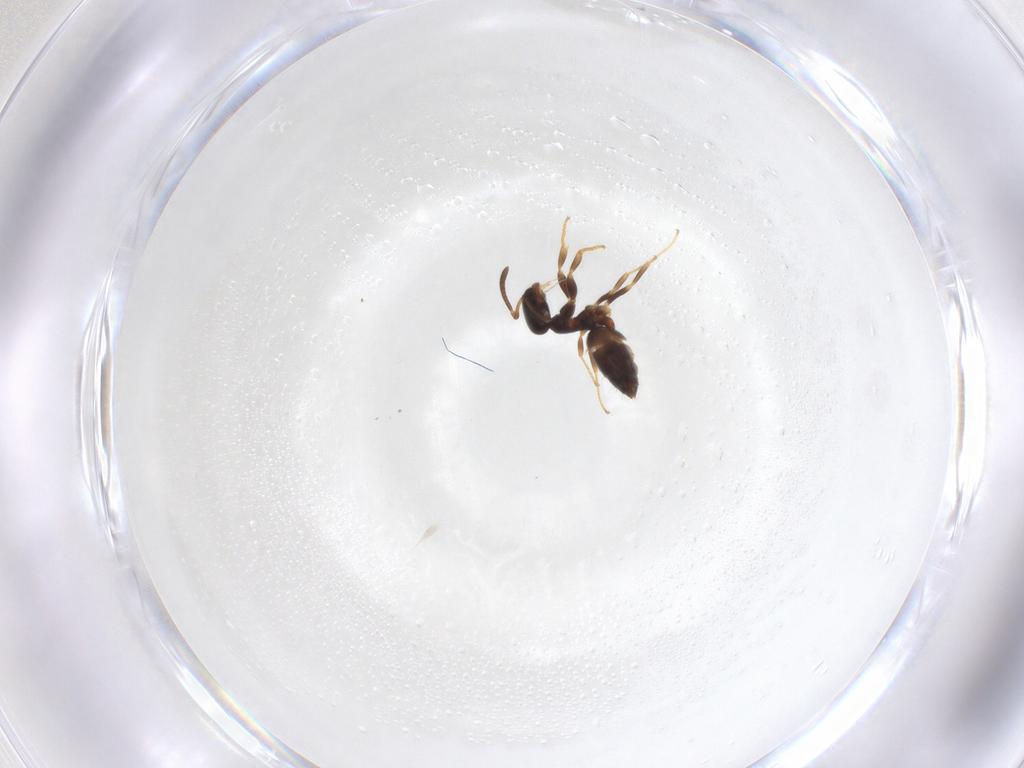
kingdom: Animalia
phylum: Arthropoda
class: Insecta
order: Hymenoptera
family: Formicidae
